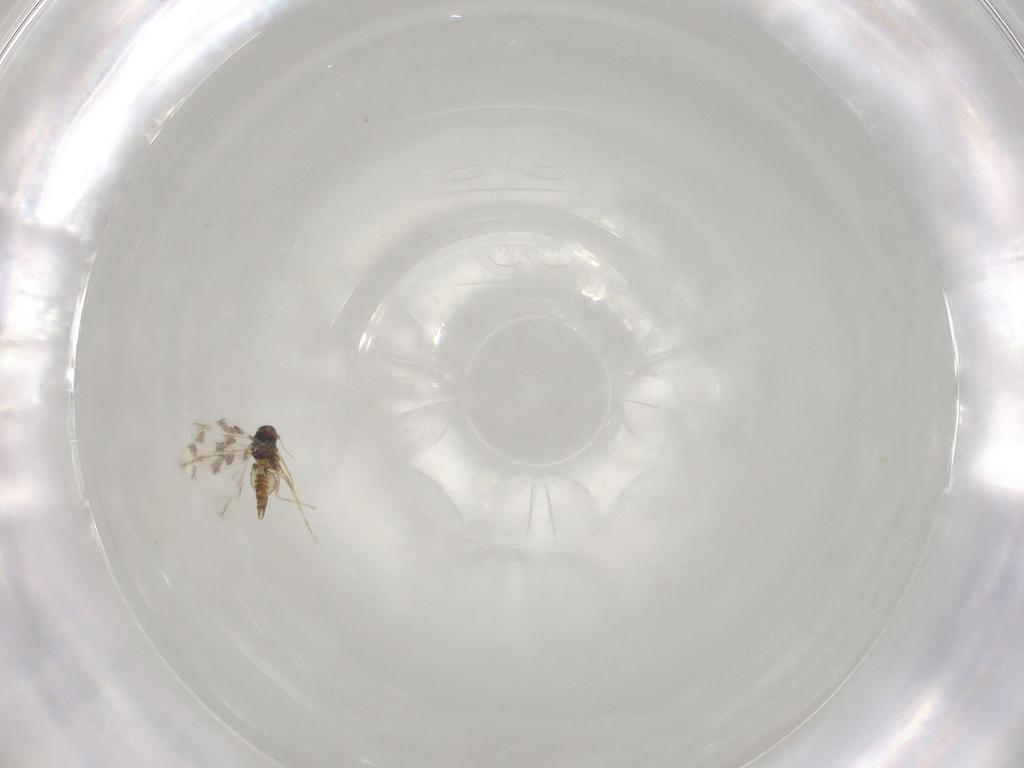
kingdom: Animalia
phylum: Arthropoda
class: Insecta
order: Hemiptera
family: Aleyrodidae
